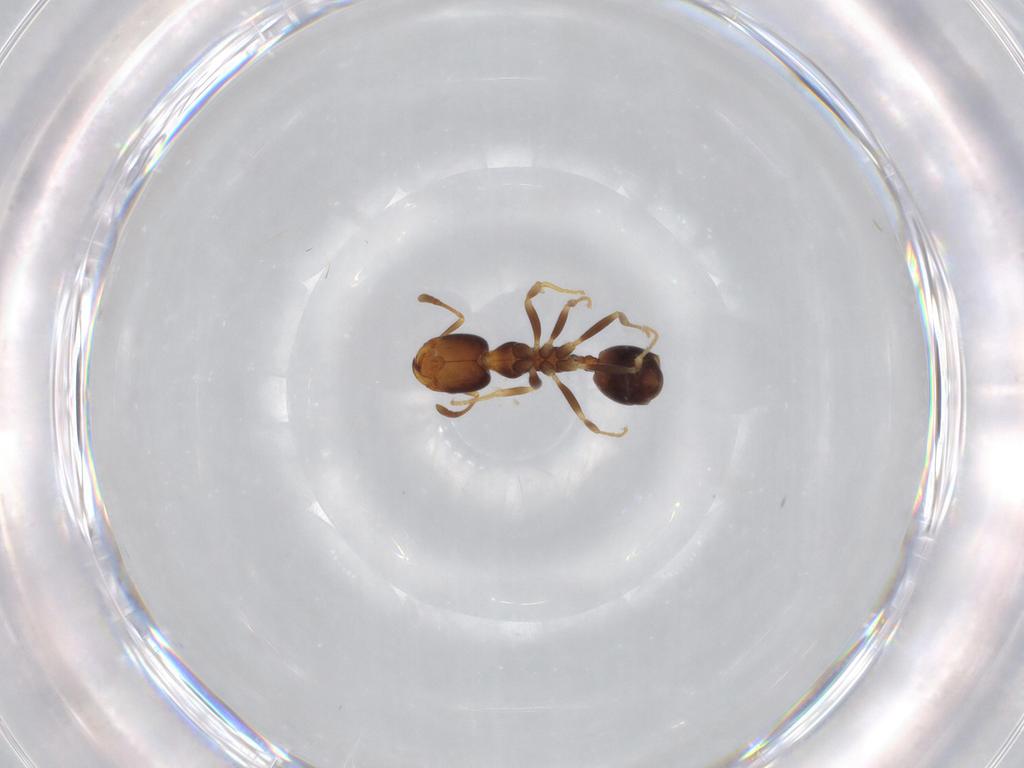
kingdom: Animalia
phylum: Arthropoda
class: Insecta
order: Hymenoptera
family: Formicidae
